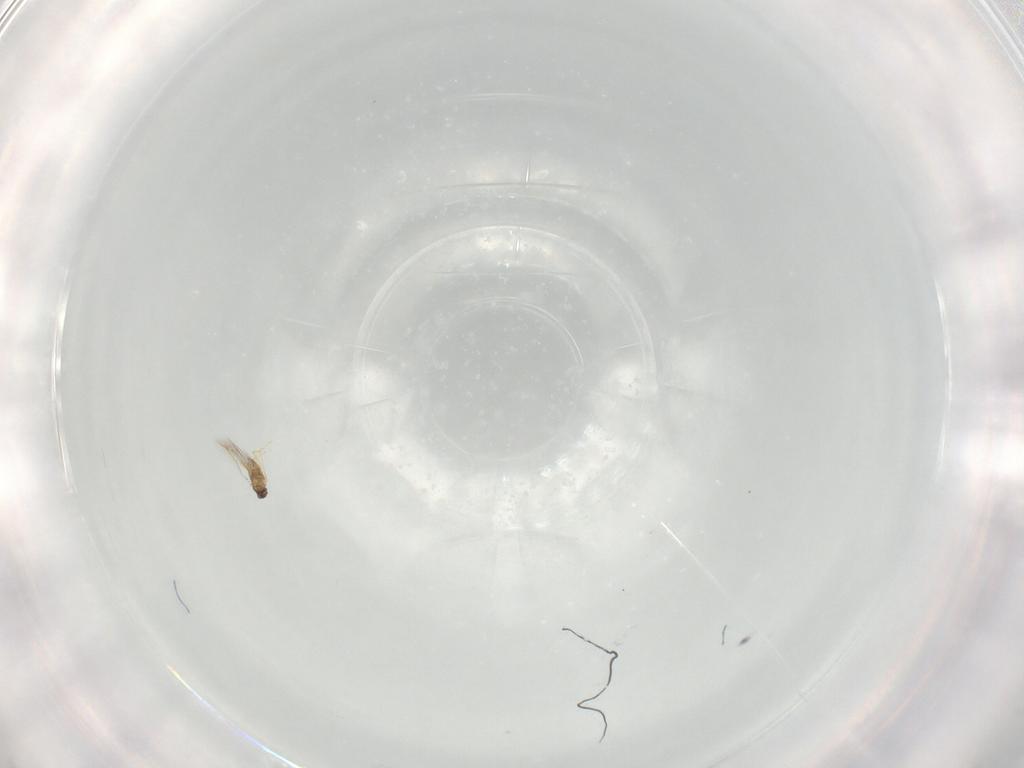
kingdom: Animalia
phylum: Arthropoda
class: Insecta
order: Hymenoptera
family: Mymaridae
